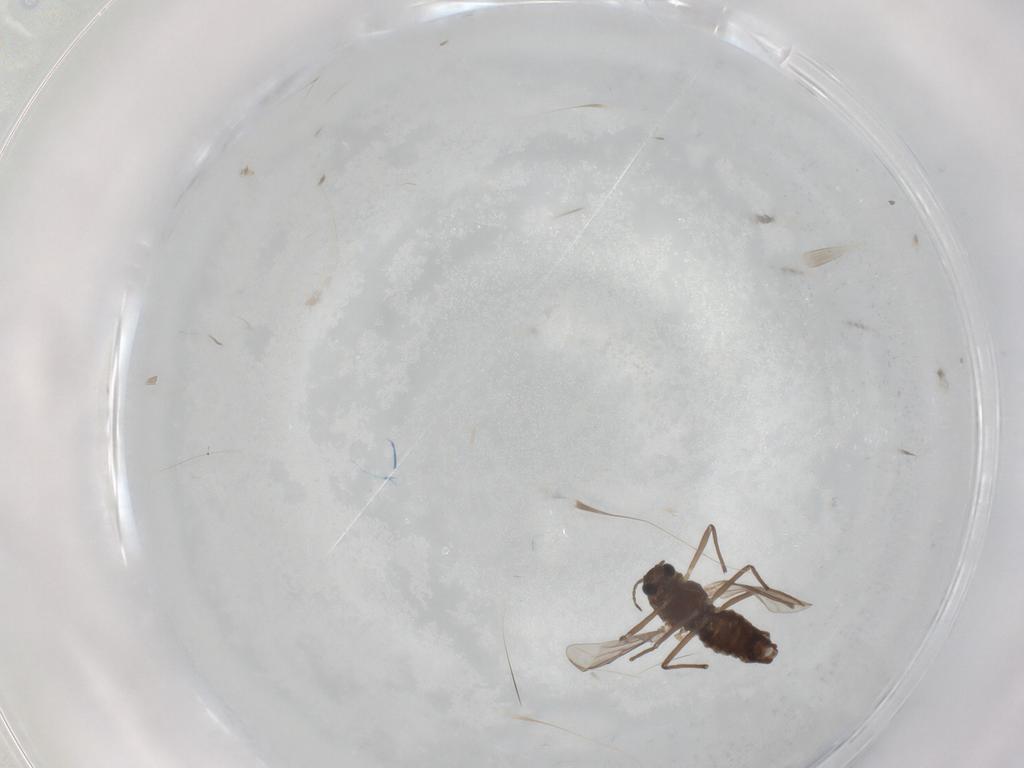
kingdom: Animalia
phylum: Arthropoda
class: Insecta
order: Diptera
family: Chironomidae
